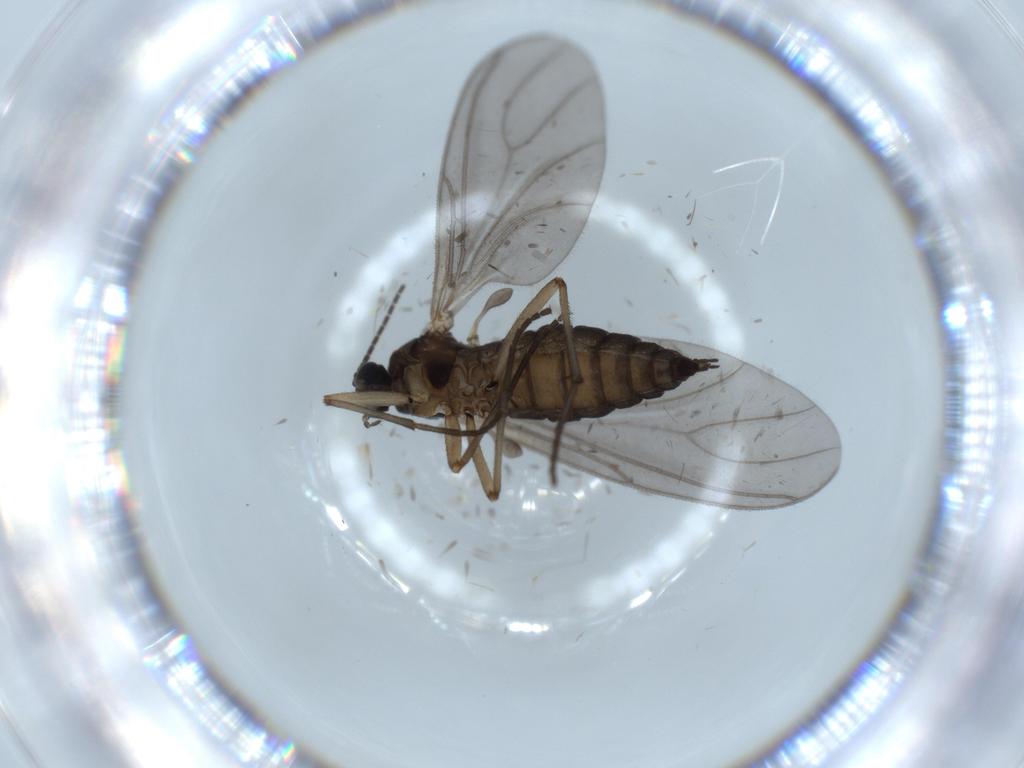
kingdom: Animalia
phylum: Arthropoda
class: Insecta
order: Diptera
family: Sciaridae
